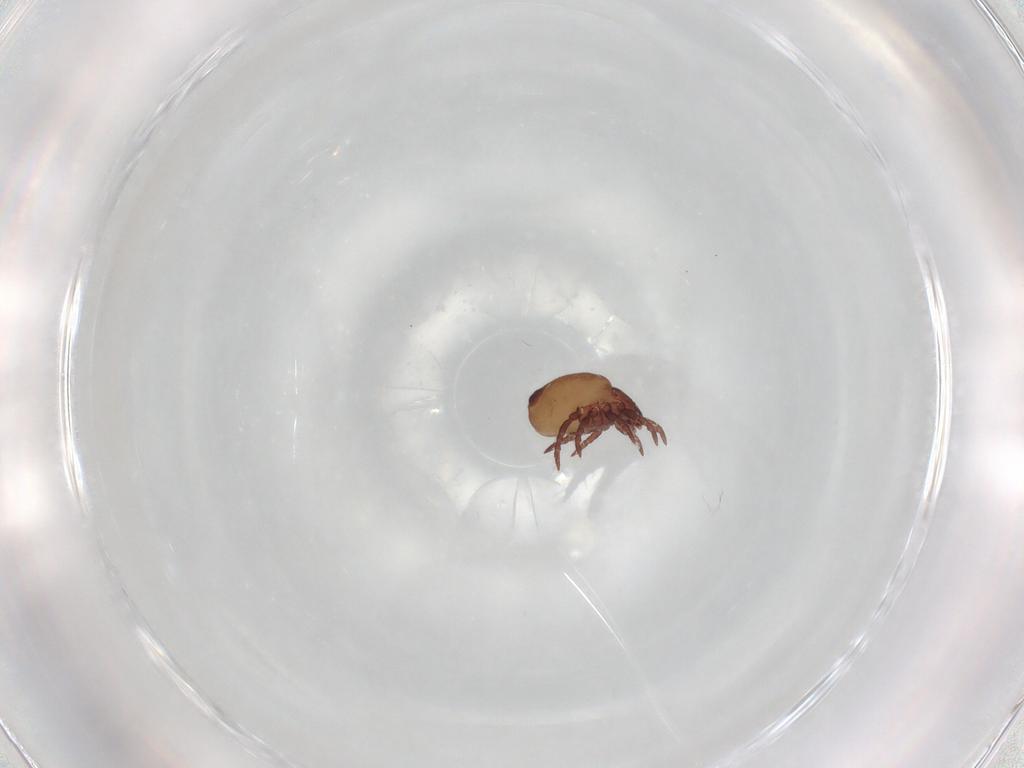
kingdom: Animalia
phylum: Arthropoda
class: Arachnida
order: Sarcoptiformes
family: Hermanniidae
